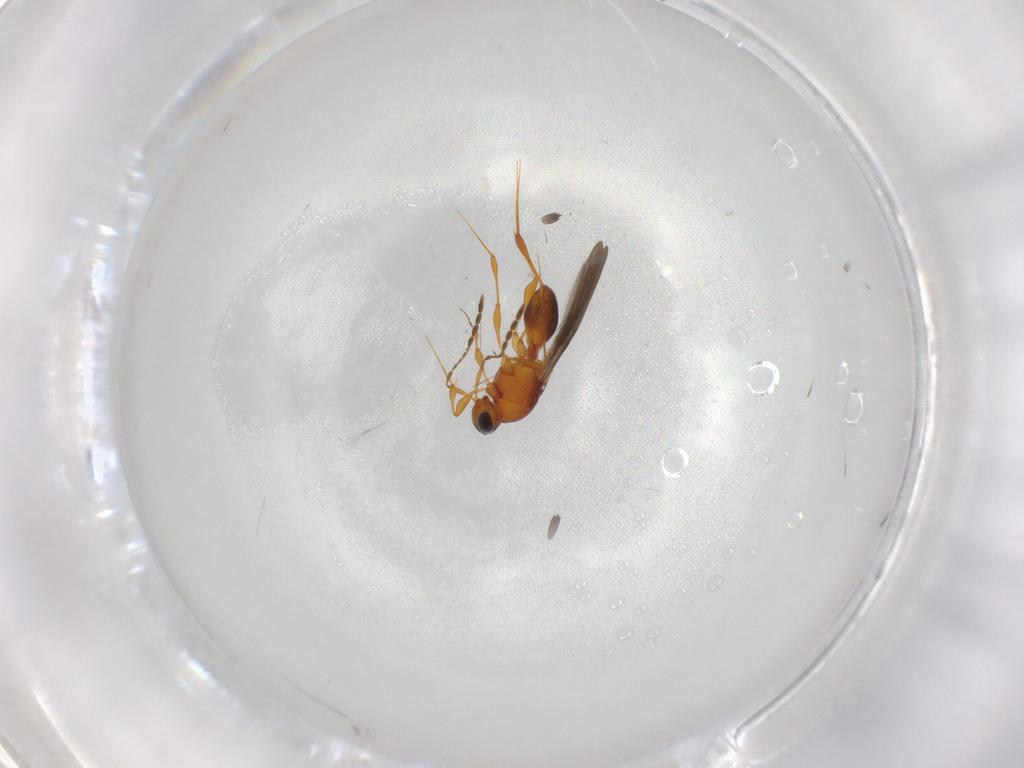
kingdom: Animalia
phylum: Arthropoda
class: Insecta
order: Hymenoptera
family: Platygastridae
